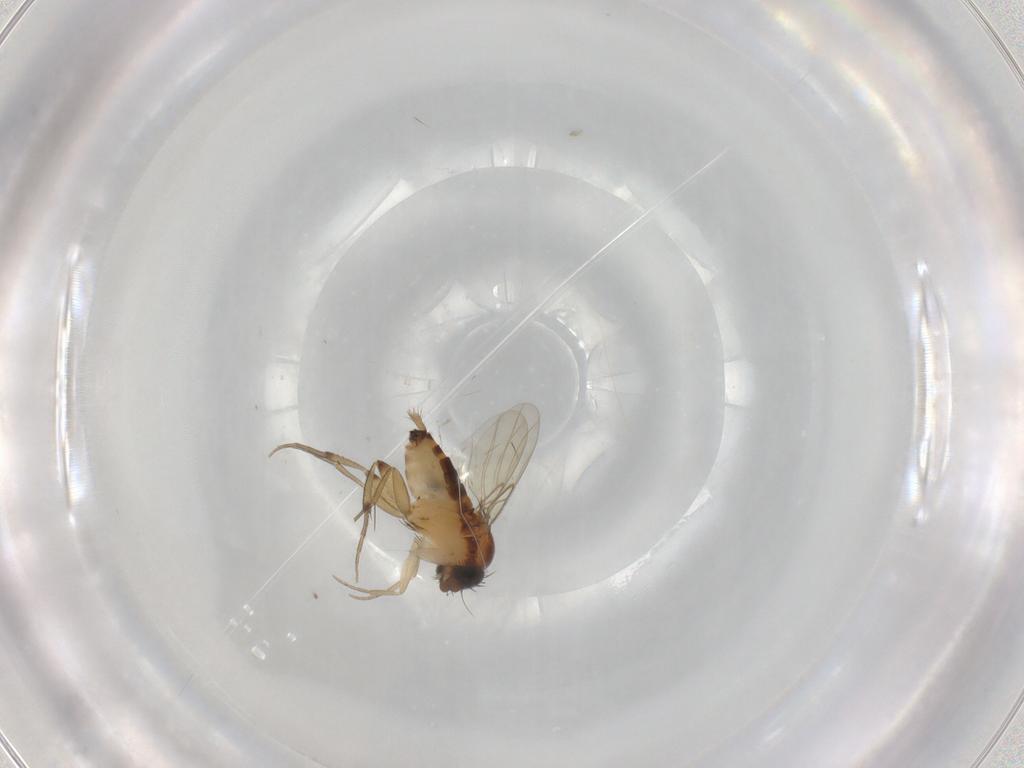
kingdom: Animalia
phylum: Arthropoda
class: Insecta
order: Diptera
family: Phoridae
